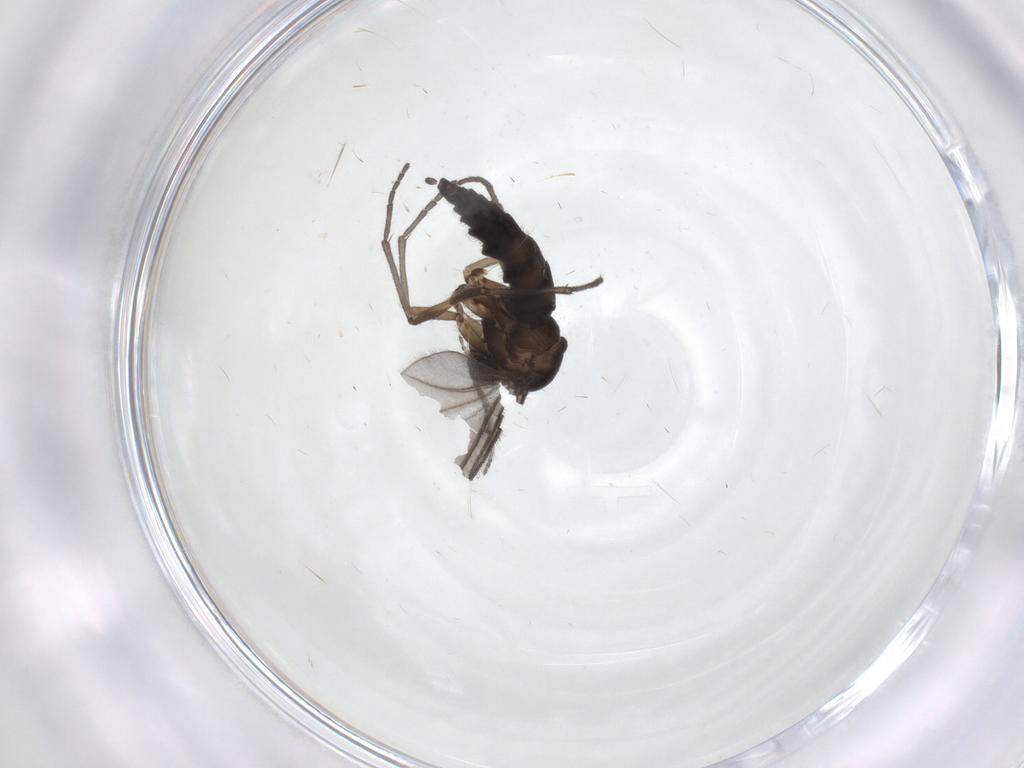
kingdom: Animalia
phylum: Arthropoda
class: Insecta
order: Diptera
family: Sciaridae
